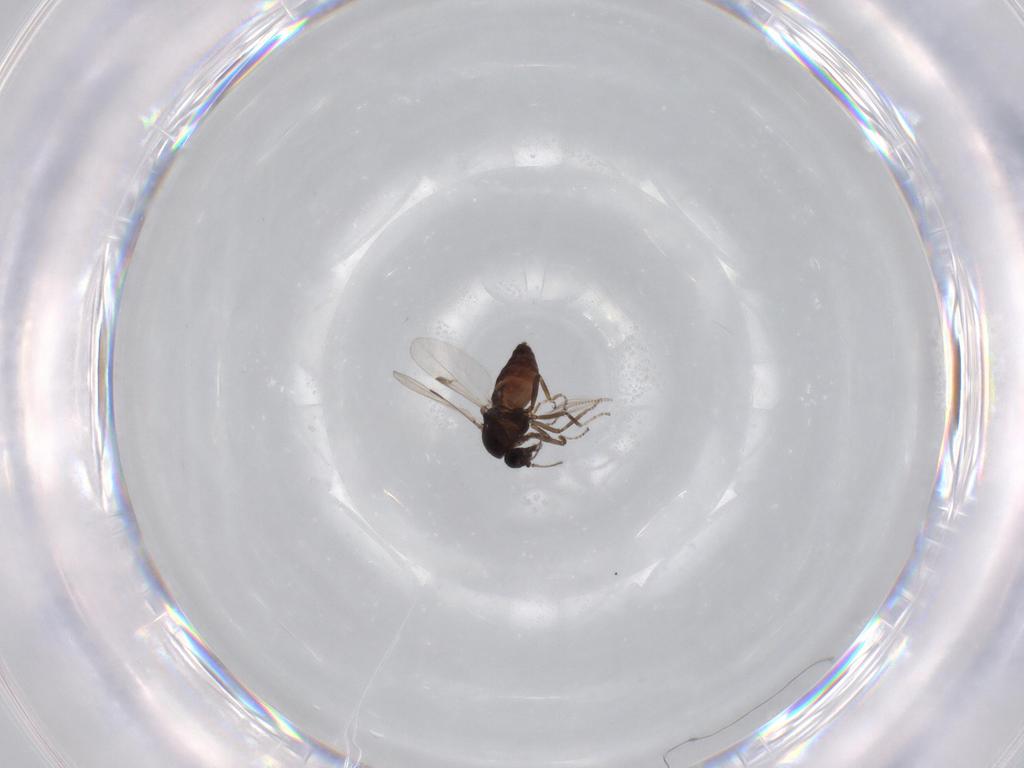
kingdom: Animalia
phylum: Arthropoda
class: Insecta
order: Diptera
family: Ceratopogonidae
